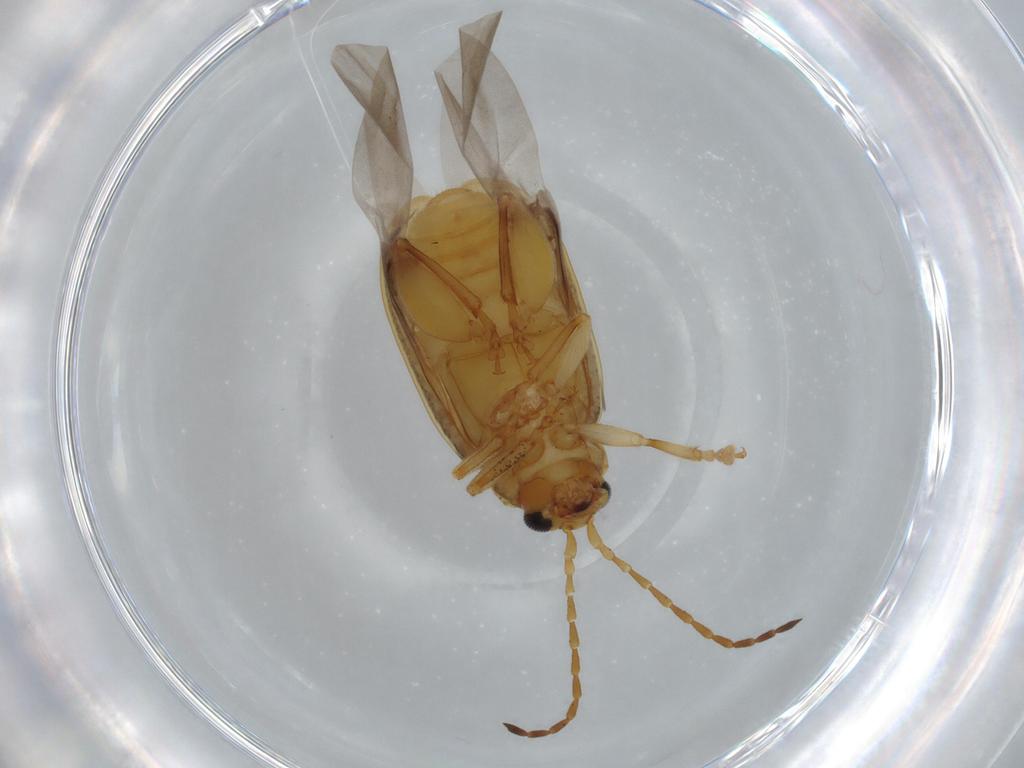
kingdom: Animalia
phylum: Arthropoda
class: Insecta
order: Coleoptera
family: Chrysomelidae
